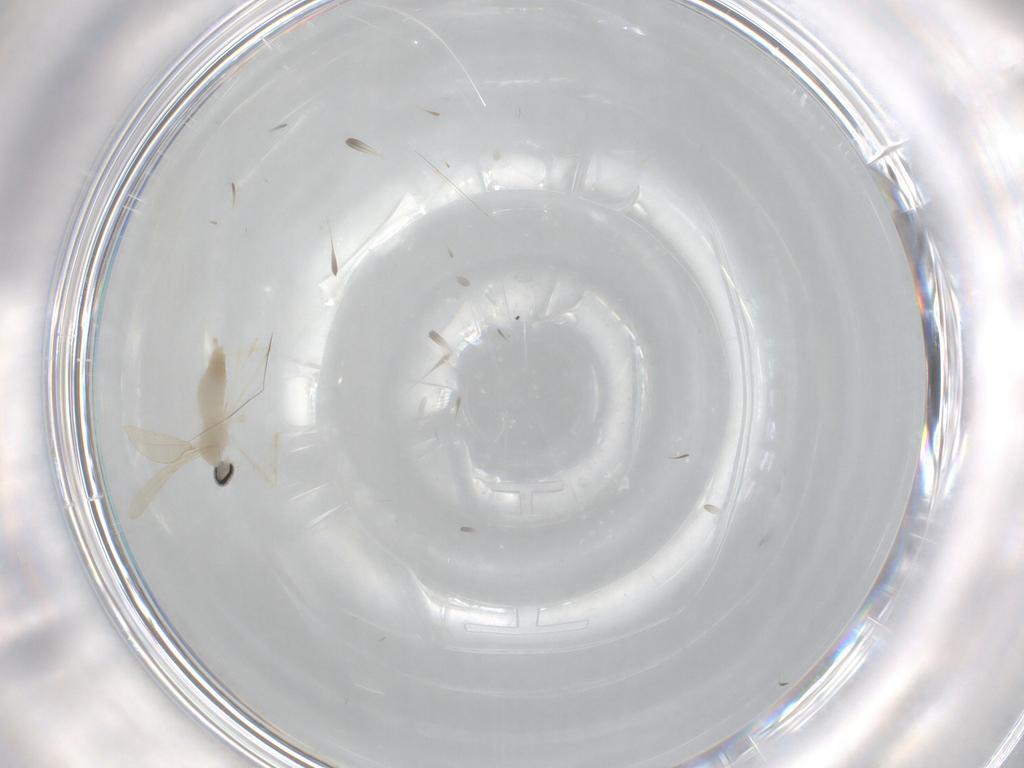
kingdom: Animalia
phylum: Arthropoda
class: Insecta
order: Diptera
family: Cecidomyiidae
